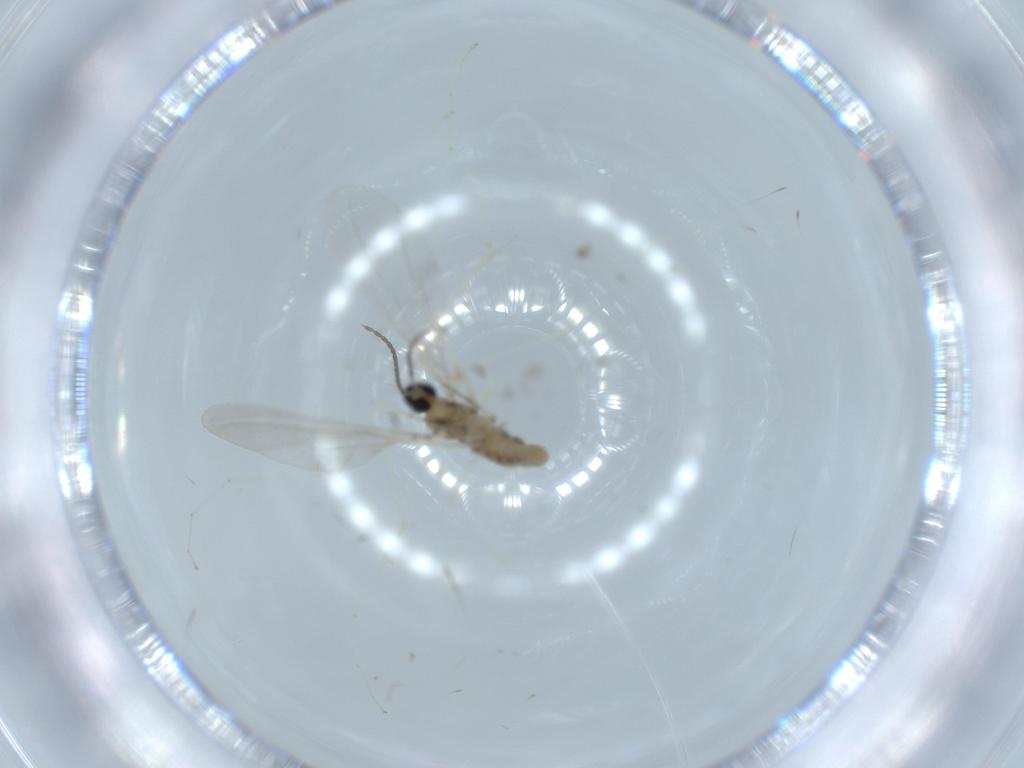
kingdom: Animalia
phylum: Arthropoda
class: Insecta
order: Diptera
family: Cecidomyiidae
